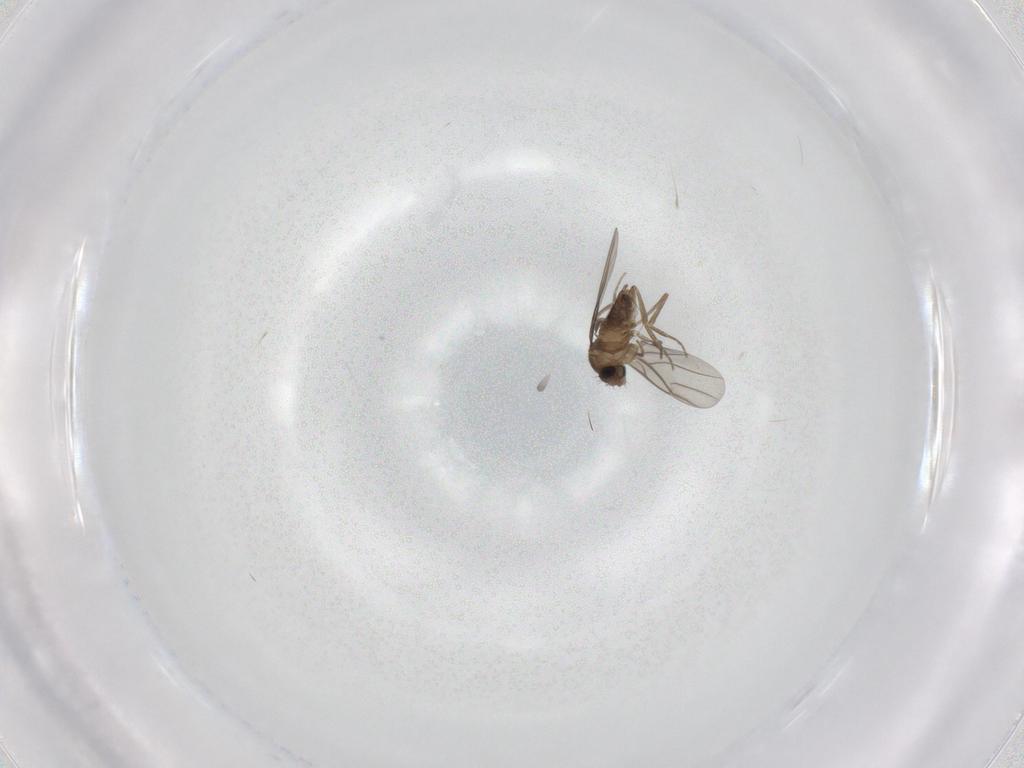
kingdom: Animalia
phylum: Arthropoda
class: Insecta
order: Diptera
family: Phoridae
